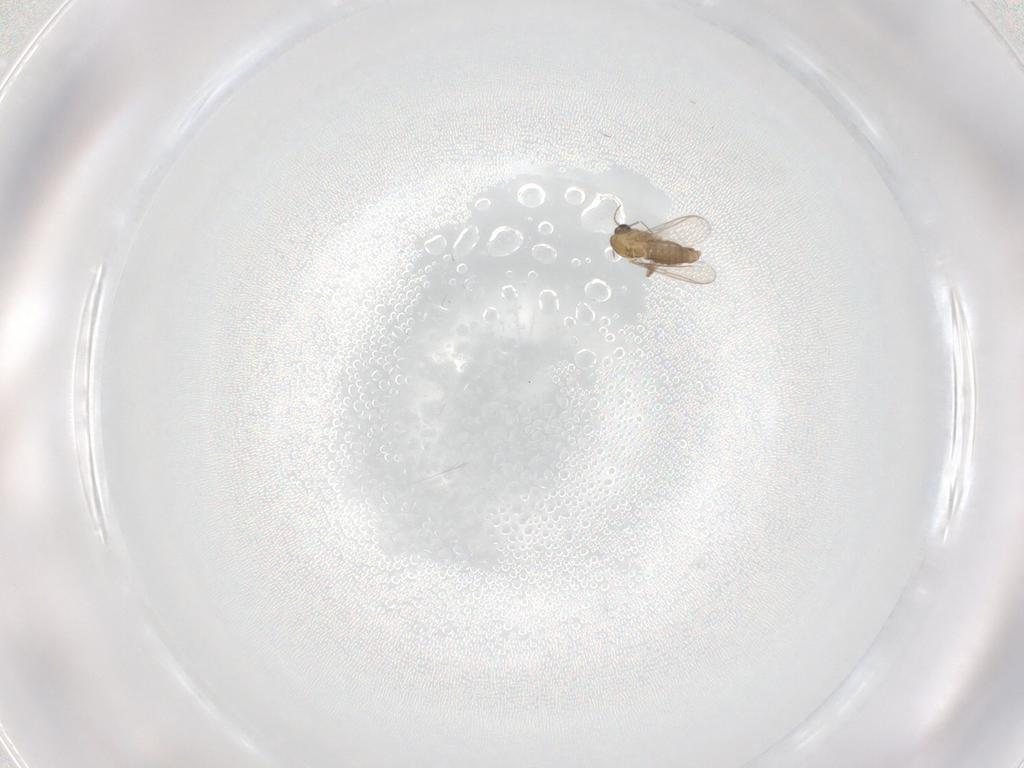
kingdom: Animalia
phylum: Arthropoda
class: Insecta
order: Diptera
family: Chironomidae
